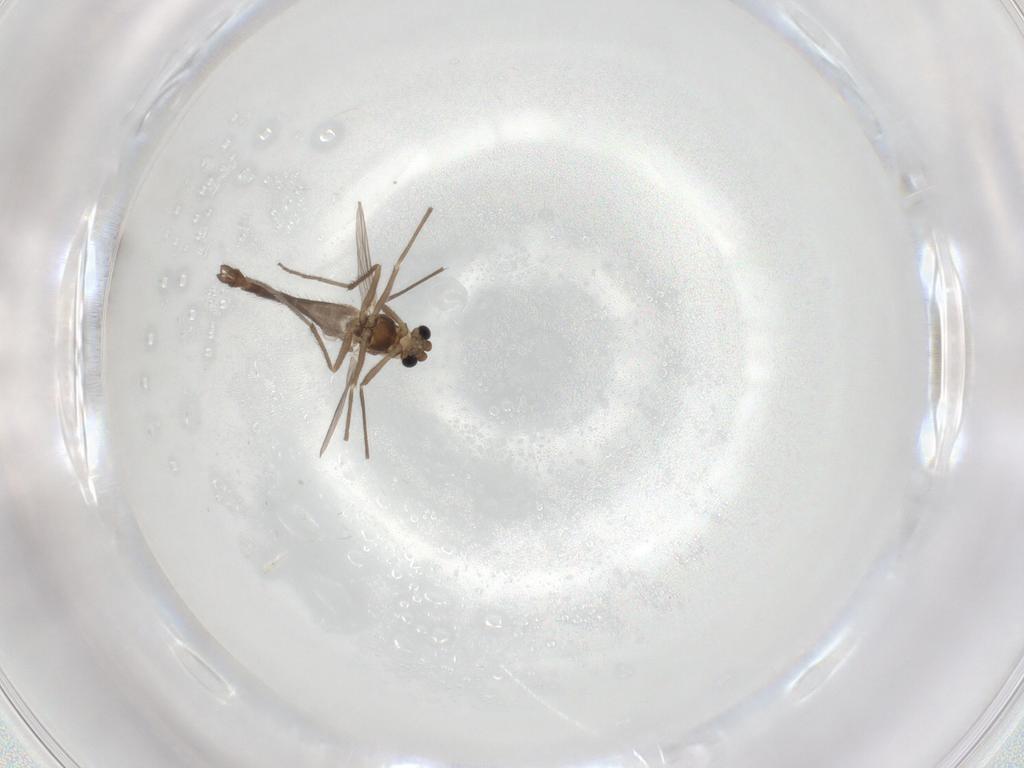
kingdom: Animalia
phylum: Arthropoda
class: Insecta
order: Diptera
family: Chironomidae
